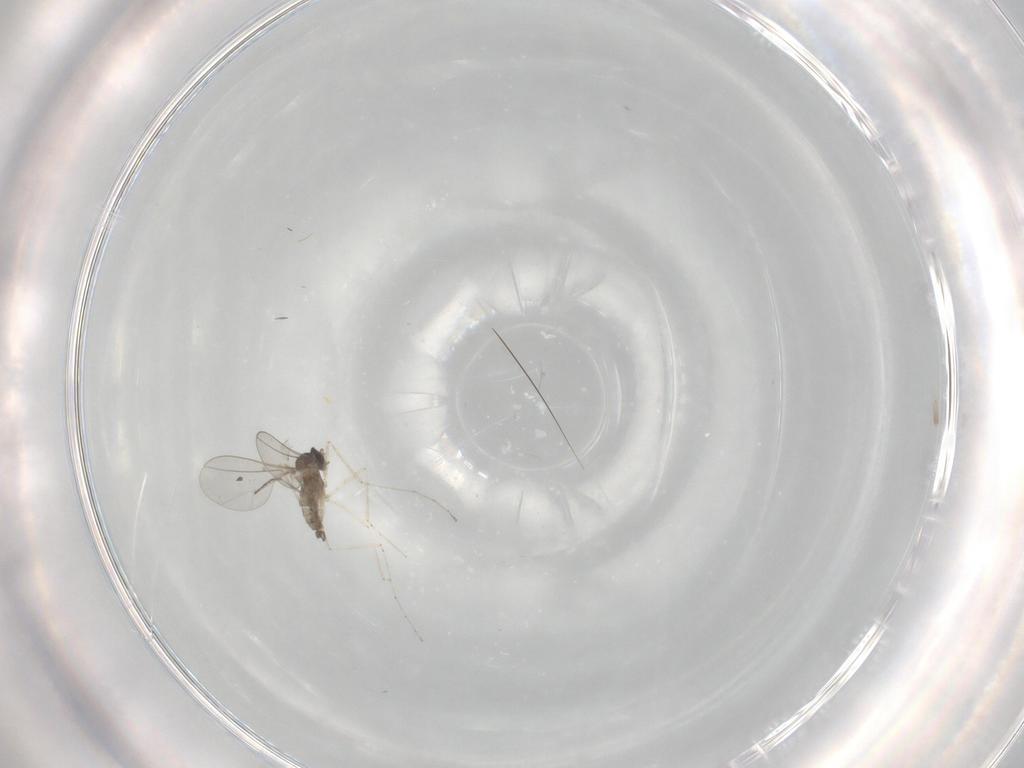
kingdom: Animalia
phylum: Arthropoda
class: Insecta
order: Diptera
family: Cecidomyiidae
